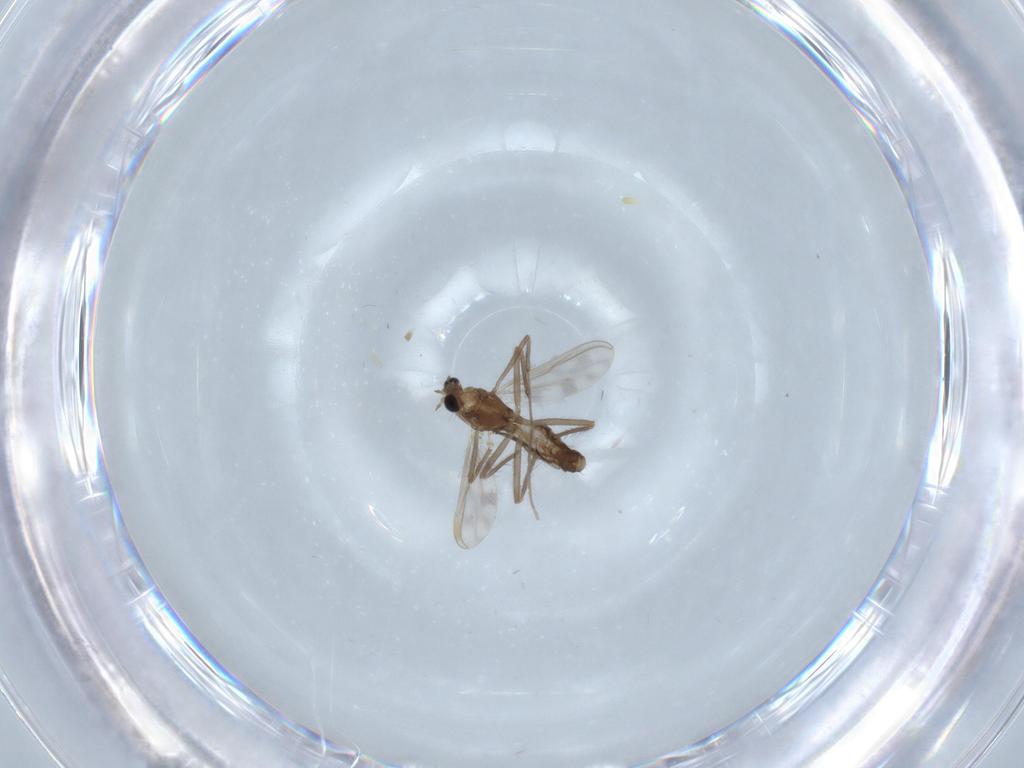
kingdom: Animalia
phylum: Arthropoda
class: Insecta
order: Diptera
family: Chironomidae
